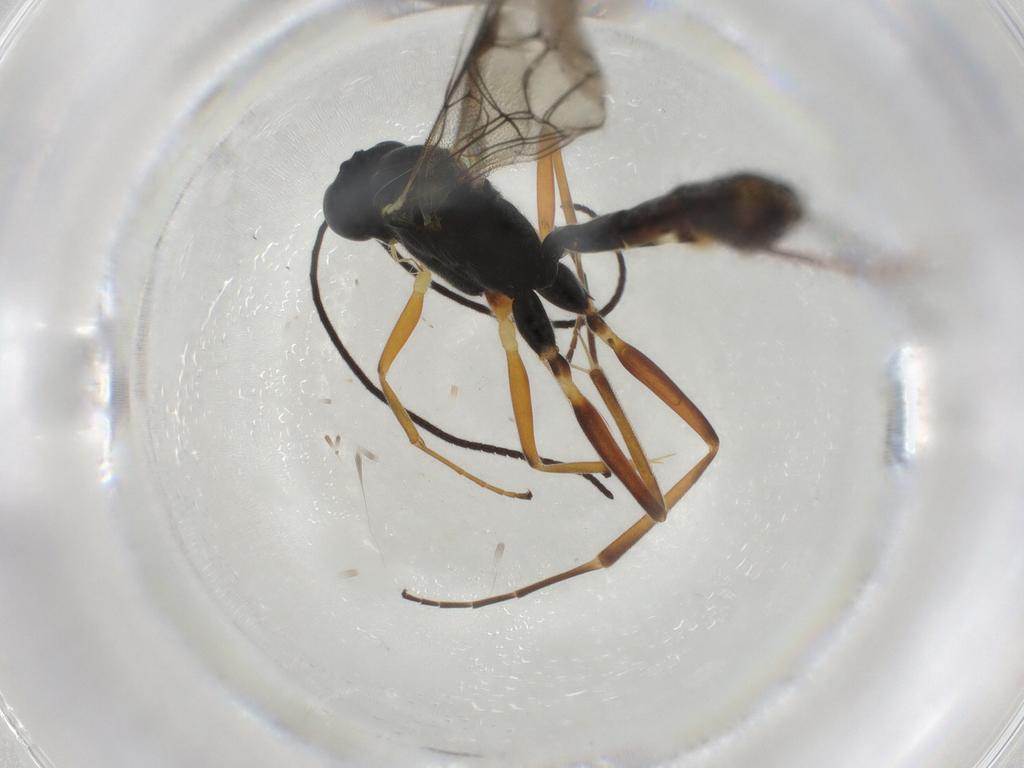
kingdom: Animalia
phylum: Arthropoda
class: Insecta
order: Hymenoptera
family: Ichneumonidae
